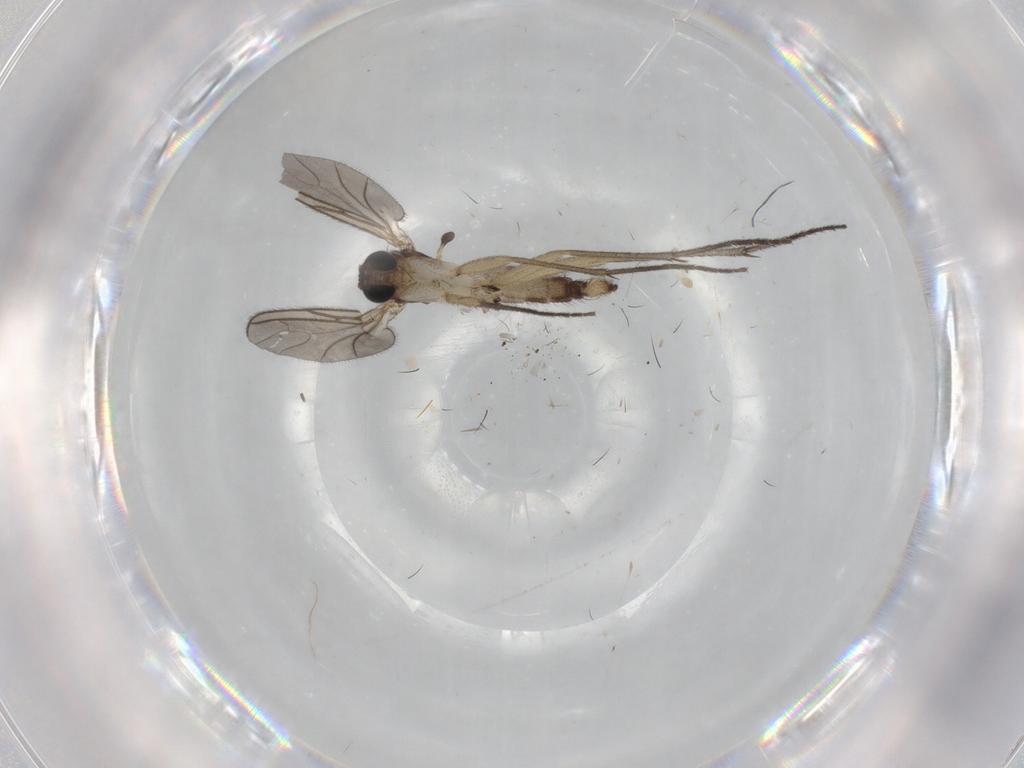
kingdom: Animalia
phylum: Arthropoda
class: Insecta
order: Diptera
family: Sciaridae
